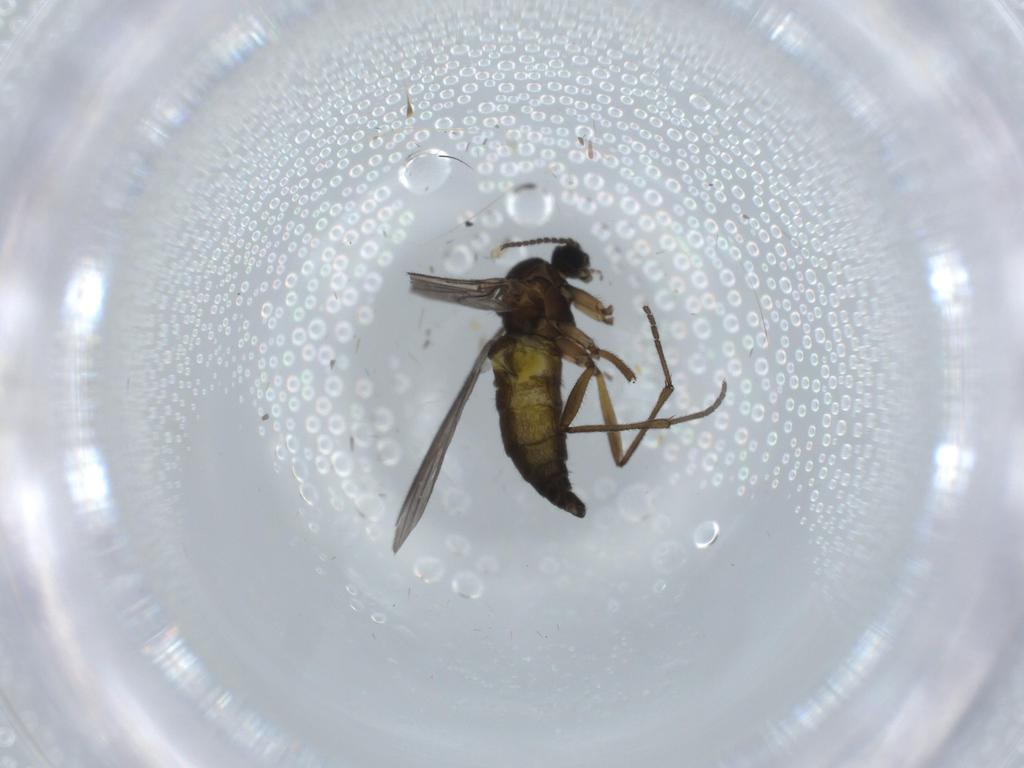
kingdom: Animalia
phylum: Arthropoda
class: Insecta
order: Diptera
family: Sciaridae
